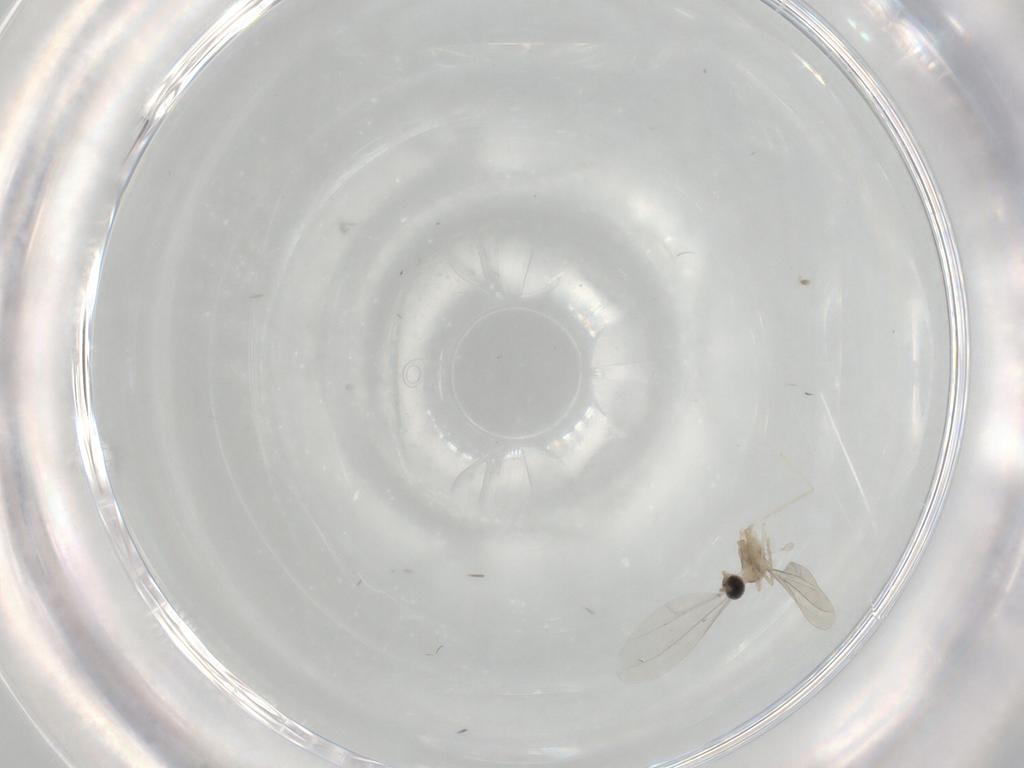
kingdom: Animalia
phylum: Arthropoda
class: Insecta
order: Diptera
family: Cecidomyiidae
